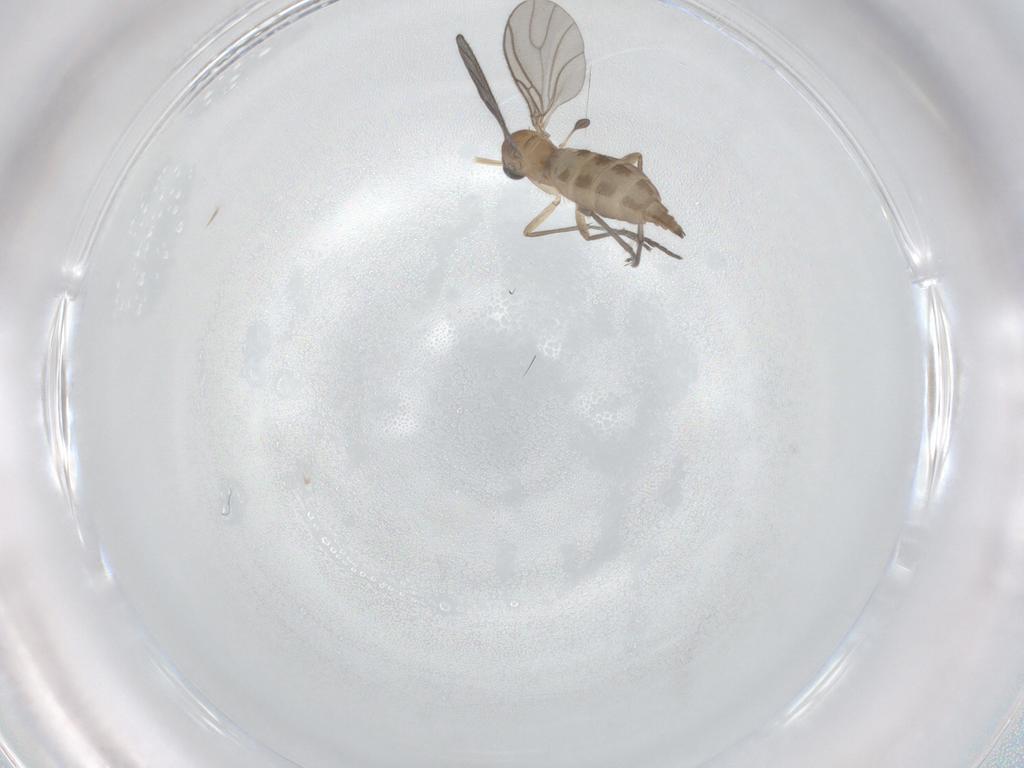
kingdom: Animalia
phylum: Arthropoda
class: Insecta
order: Diptera
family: Sciaridae
